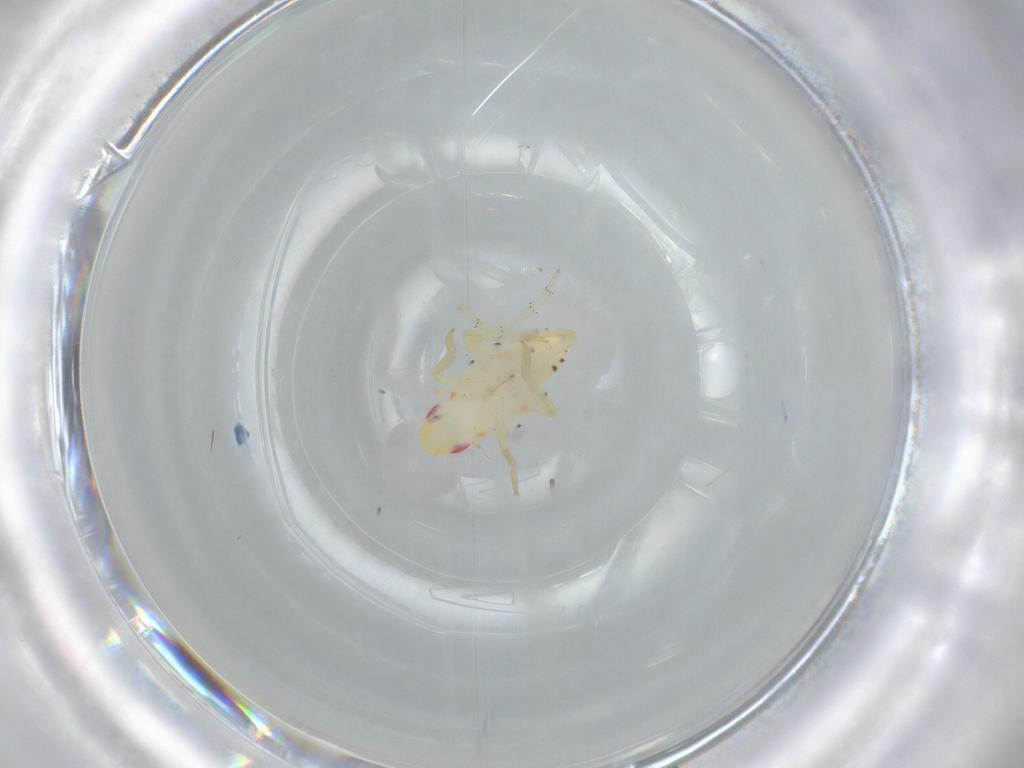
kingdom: Animalia
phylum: Arthropoda
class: Insecta
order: Hemiptera
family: Tropiduchidae
